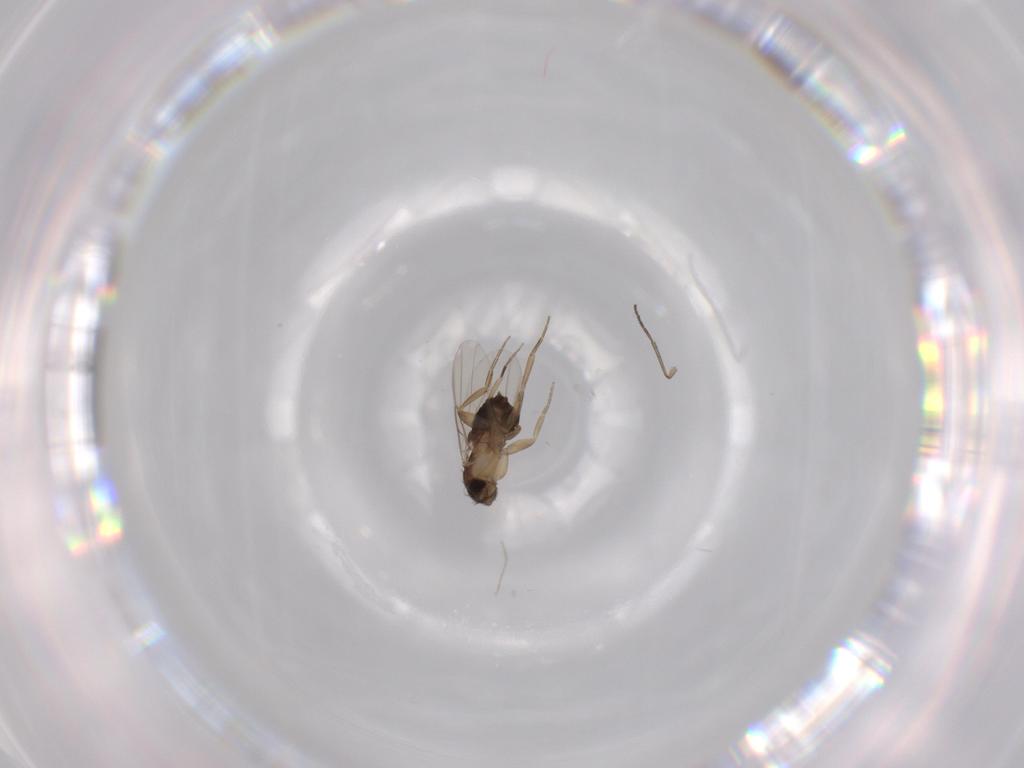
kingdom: Animalia
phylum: Arthropoda
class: Insecta
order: Diptera
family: Phoridae
